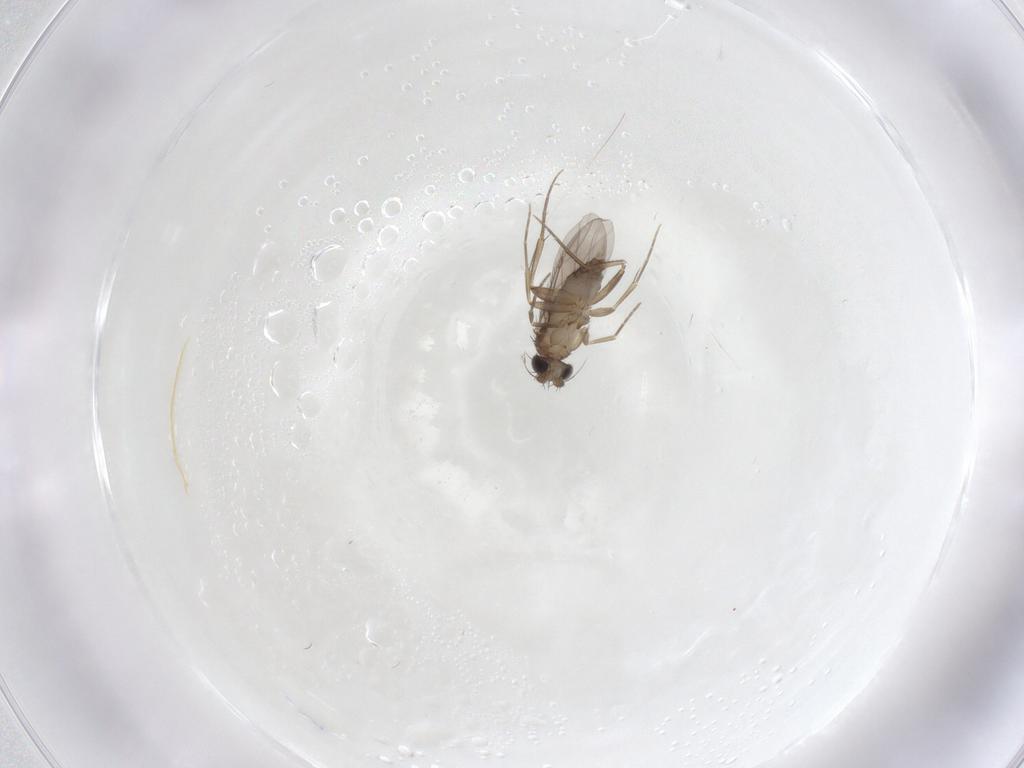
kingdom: Animalia
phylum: Arthropoda
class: Insecta
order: Diptera
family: Phoridae
